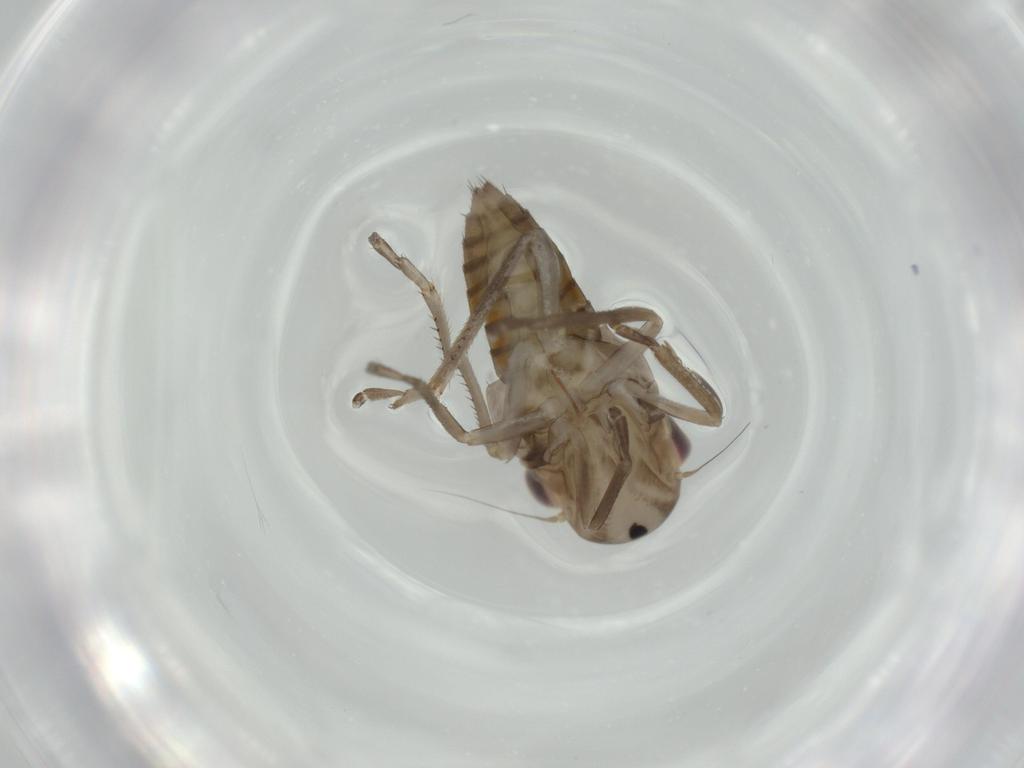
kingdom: Animalia
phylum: Arthropoda
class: Insecta
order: Hemiptera
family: Cicadellidae
